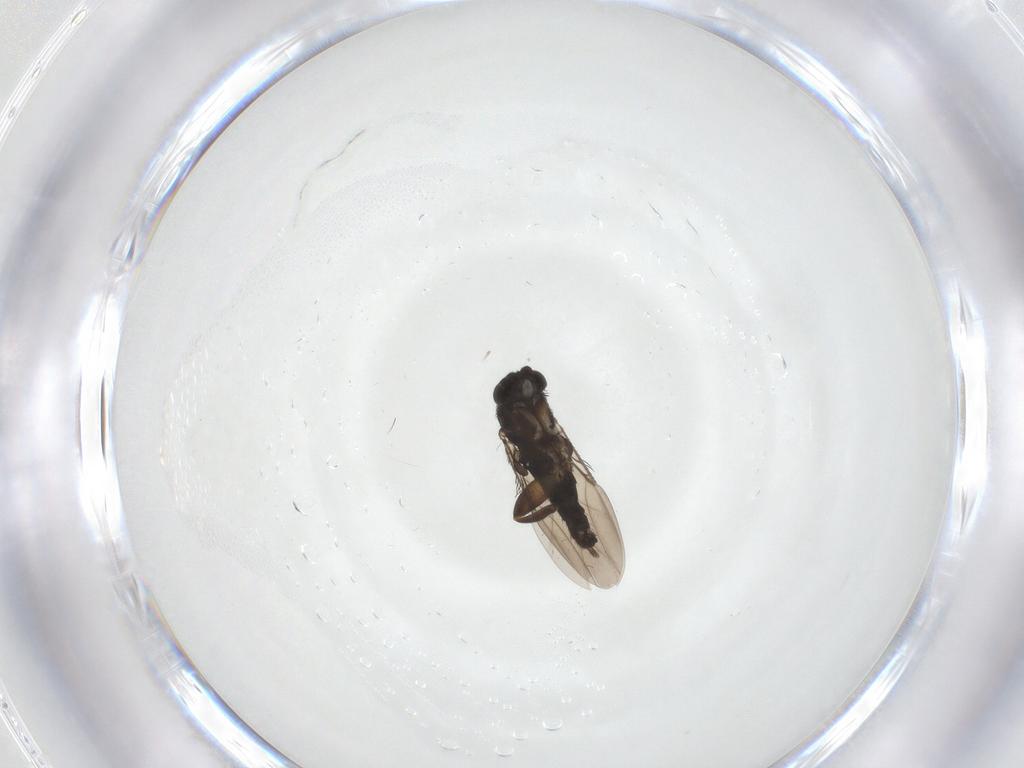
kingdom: Animalia
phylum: Arthropoda
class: Insecta
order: Diptera
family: Phoridae
